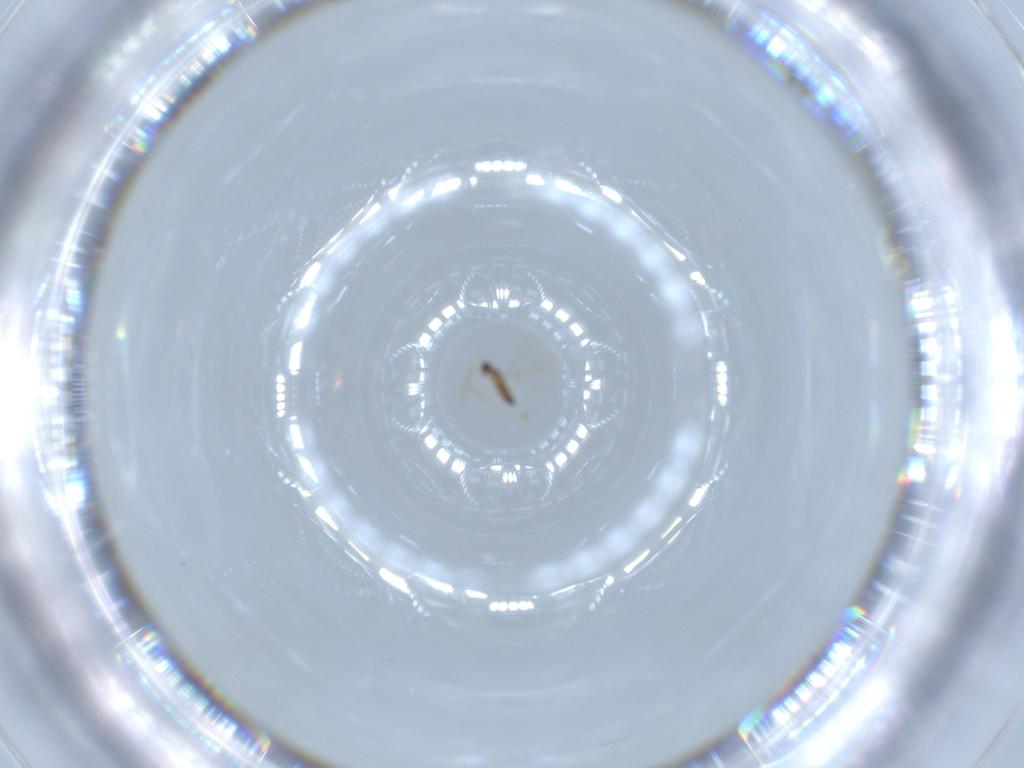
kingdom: Animalia
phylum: Arthropoda
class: Insecta
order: Hymenoptera
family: Mymaridae
